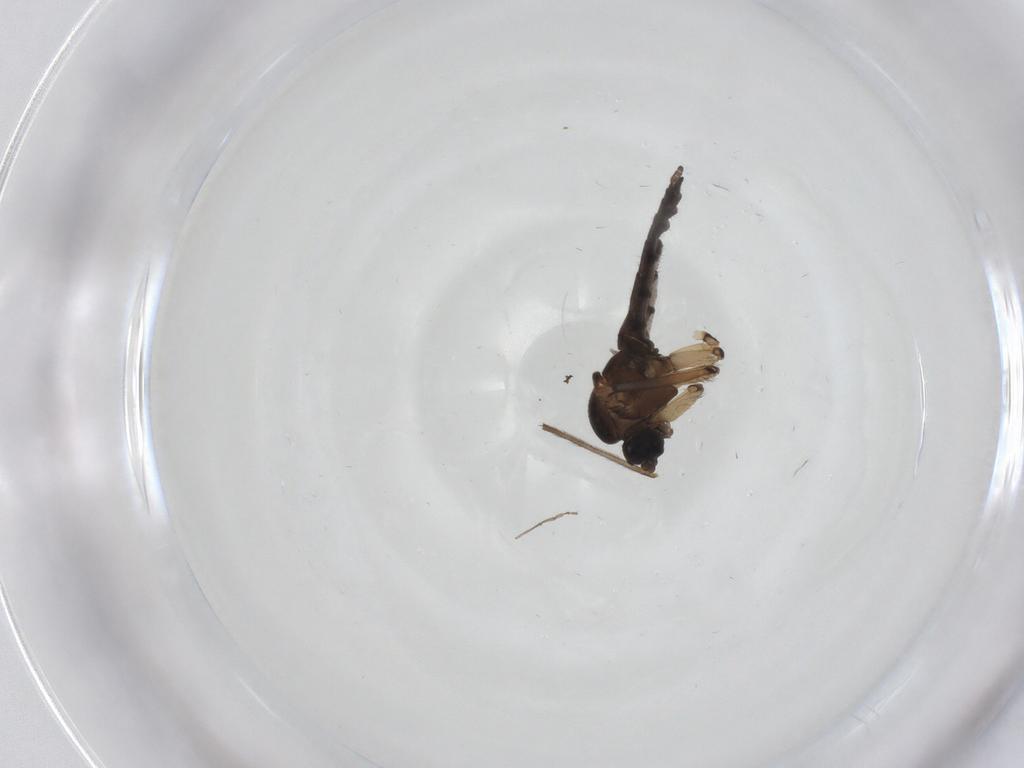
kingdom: Animalia
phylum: Arthropoda
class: Insecta
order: Diptera
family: Sciaridae
